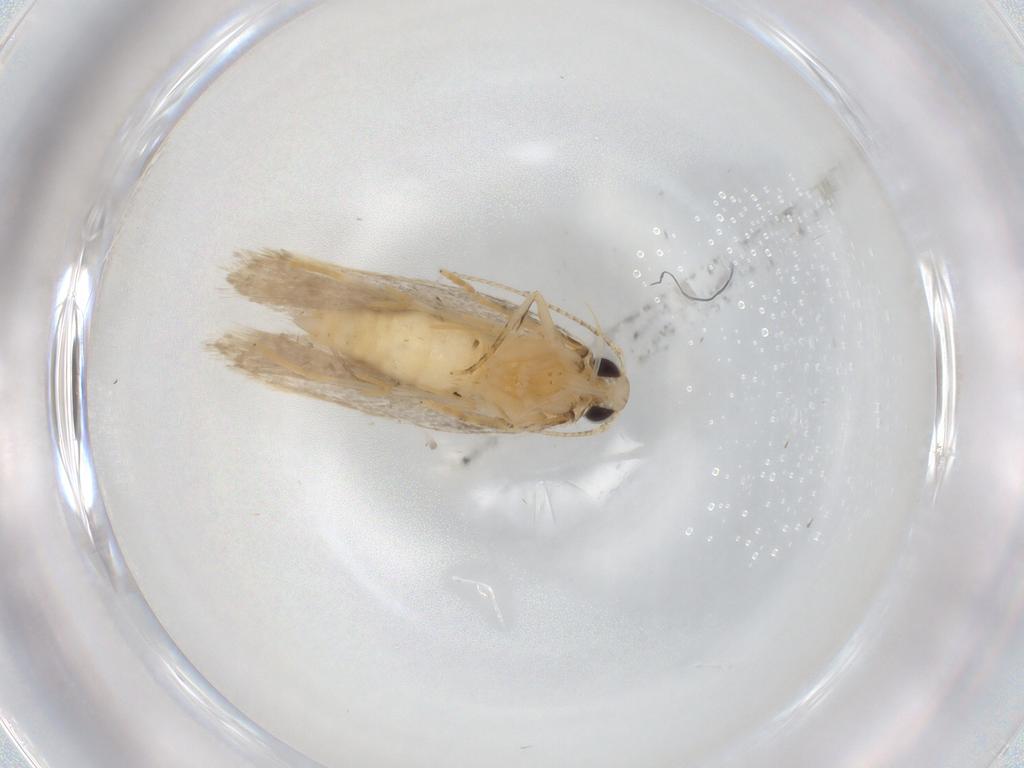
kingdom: Animalia
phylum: Arthropoda
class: Insecta
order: Lepidoptera
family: Autostichidae
